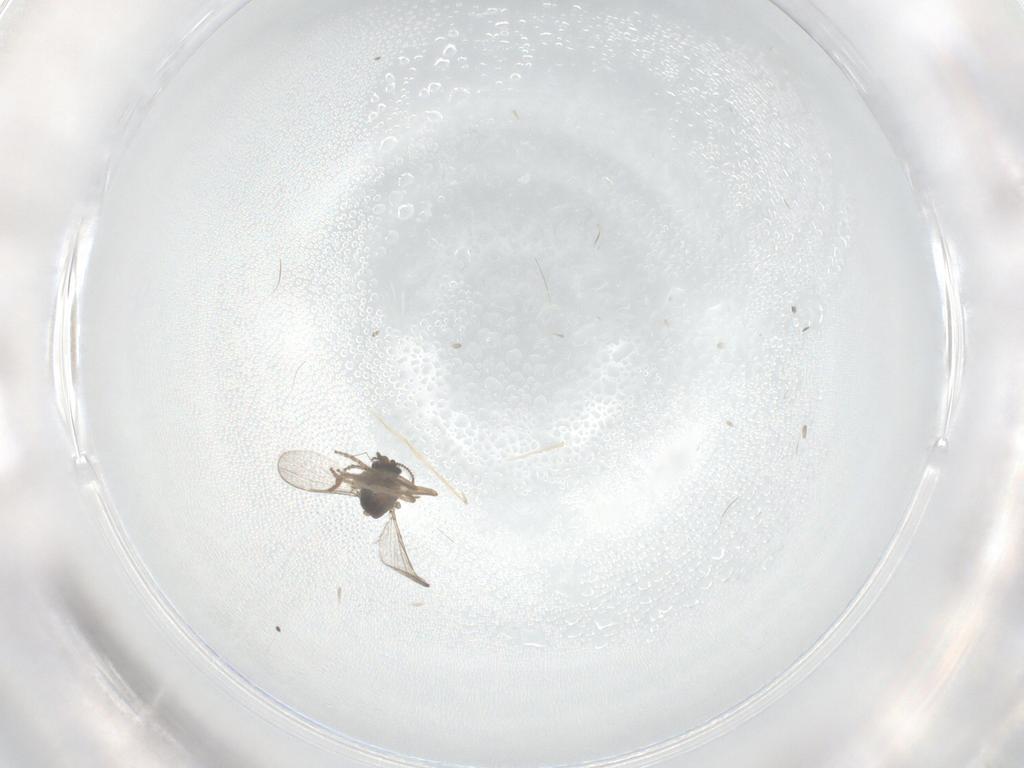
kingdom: Animalia
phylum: Arthropoda
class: Insecta
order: Diptera
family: Ceratopogonidae
